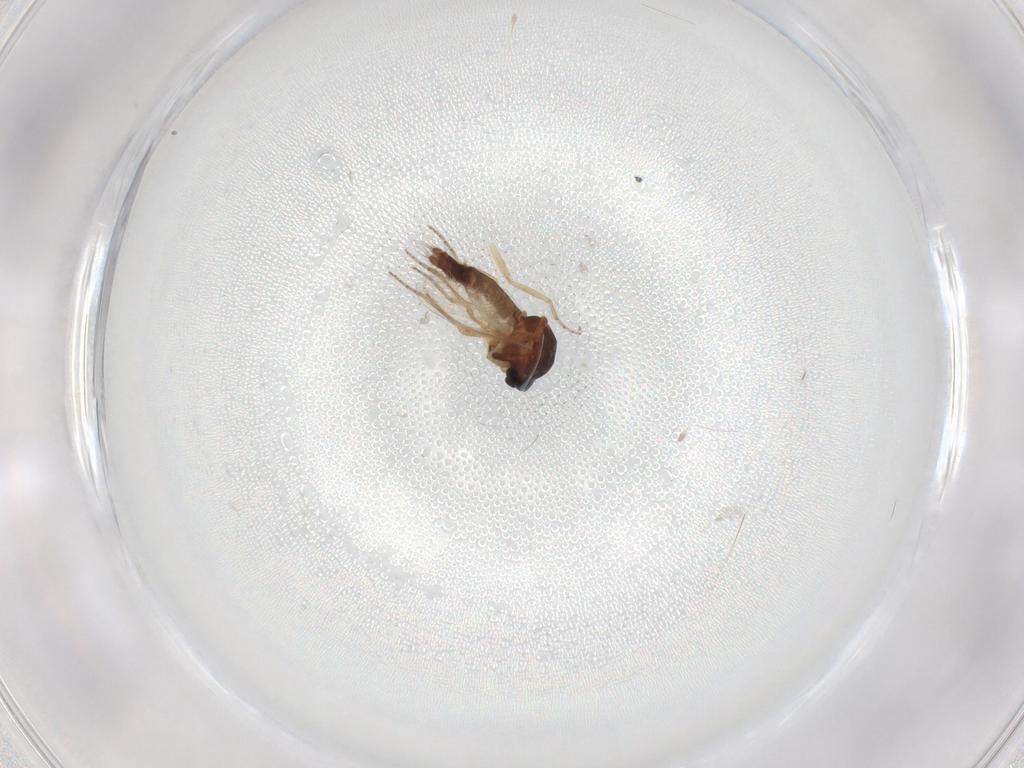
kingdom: Animalia
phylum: Arthropoda
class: Insecta
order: Diptera
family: Ceratopogonidae
